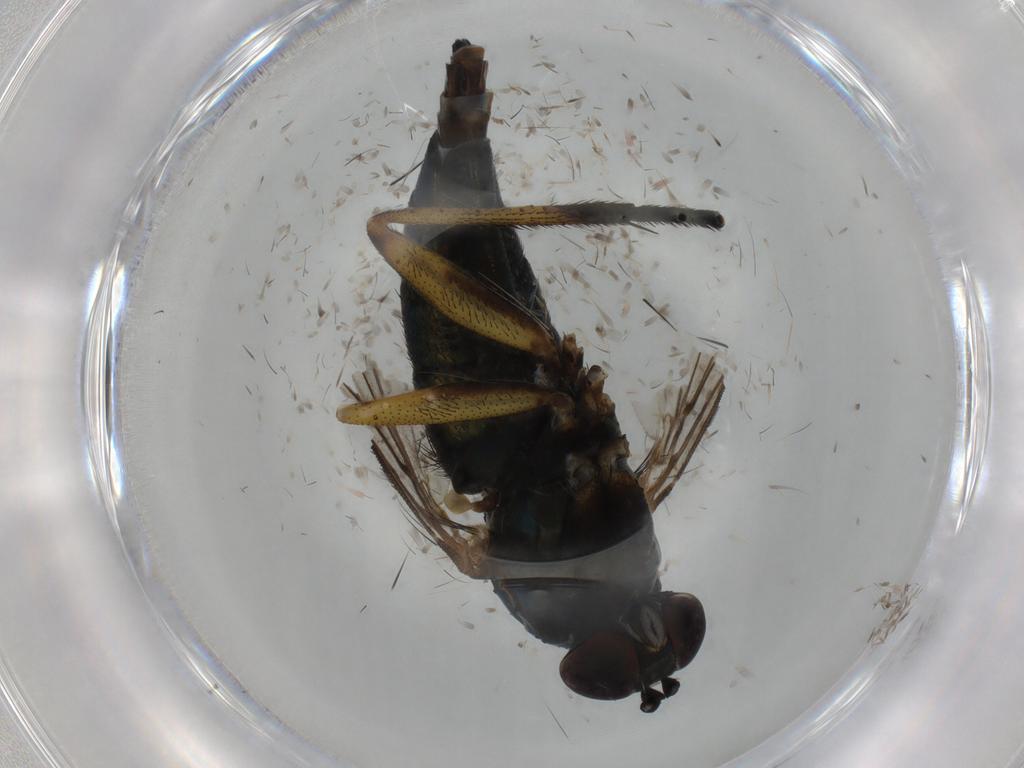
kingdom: Animalia
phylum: Arthropoda
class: Insecta
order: Diptera
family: Dolichopodidae
